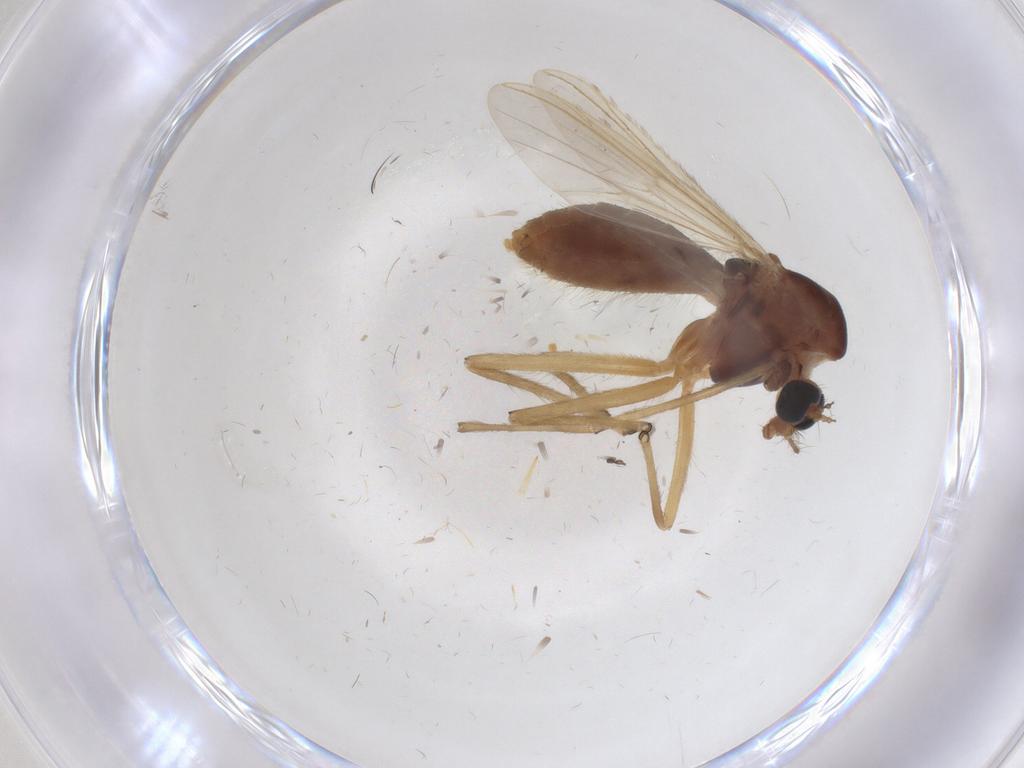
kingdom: Animalia
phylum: Arthropoda
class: Insecta
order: Diptera
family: Chironomidae
